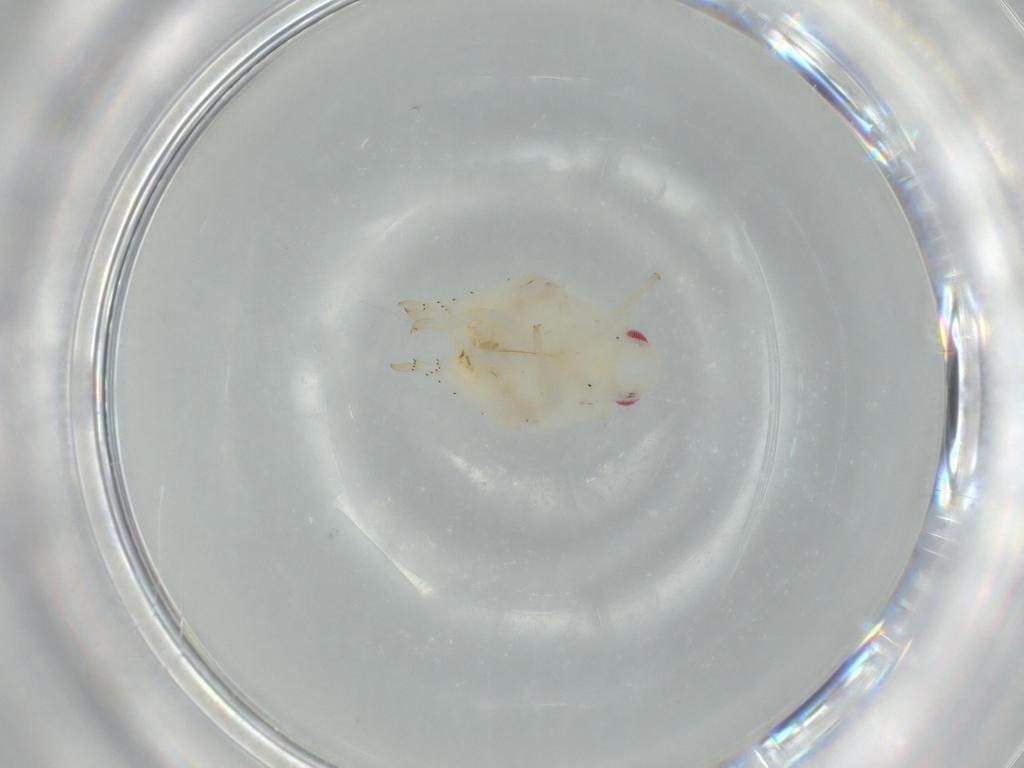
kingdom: Animalia
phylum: Arthropoda
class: Insecta
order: Hemiptera
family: Flatidae
